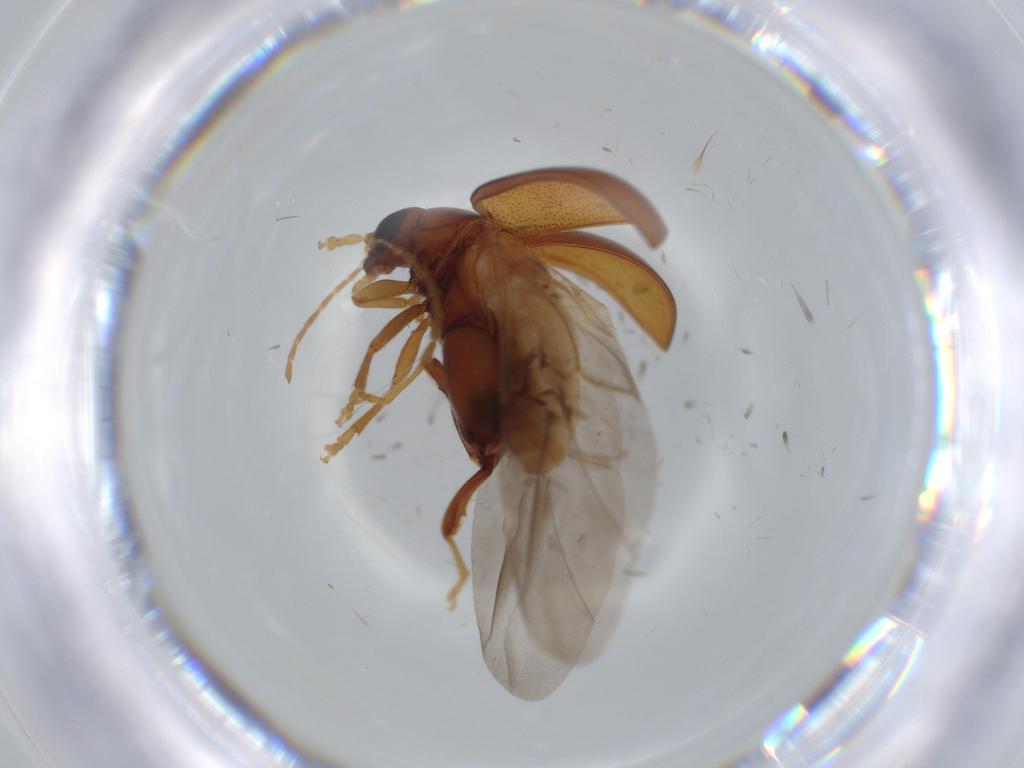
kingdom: Animalia
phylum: Arthropoda
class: Insecta
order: Coleoptera
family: Chrysomelidae
